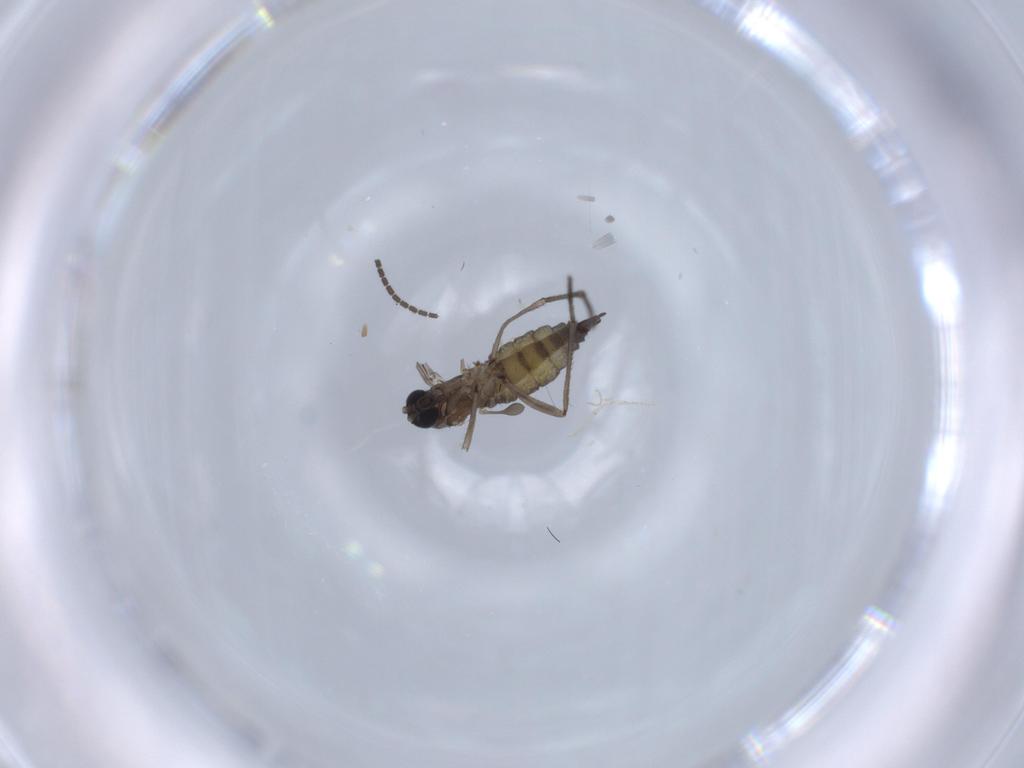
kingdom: Animalia
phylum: Arthropoda
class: Insecta
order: Diptera
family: Sciaridae
